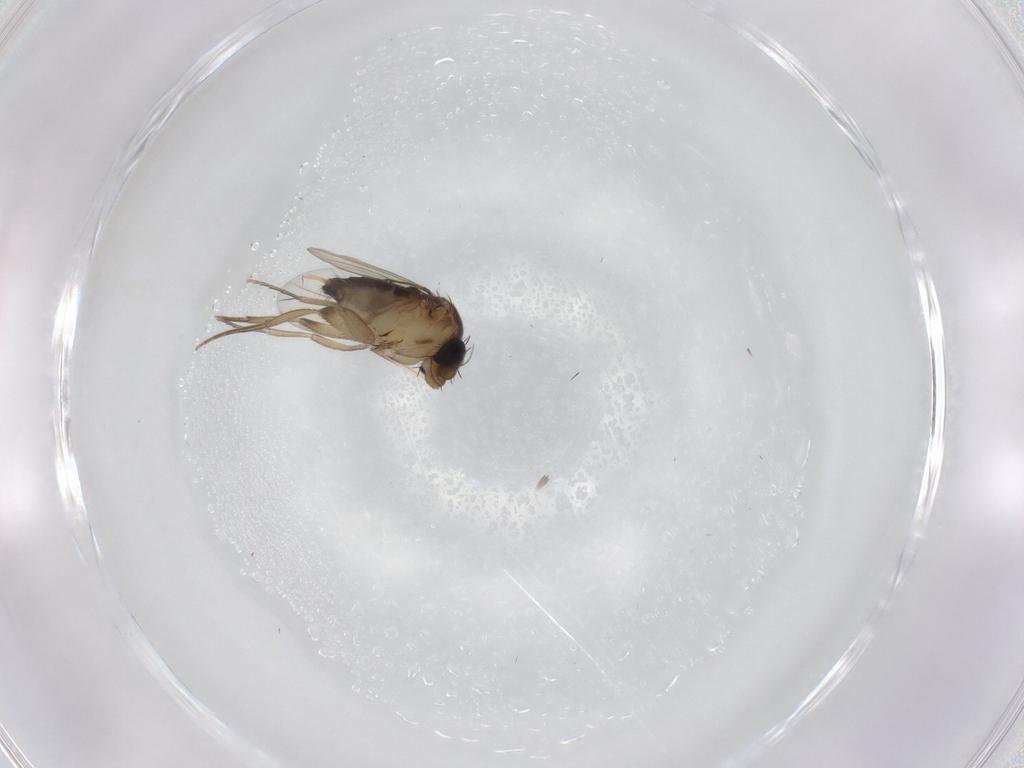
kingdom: Animalia
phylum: Arthropoda
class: Insecta
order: Diptera
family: Phoridae
